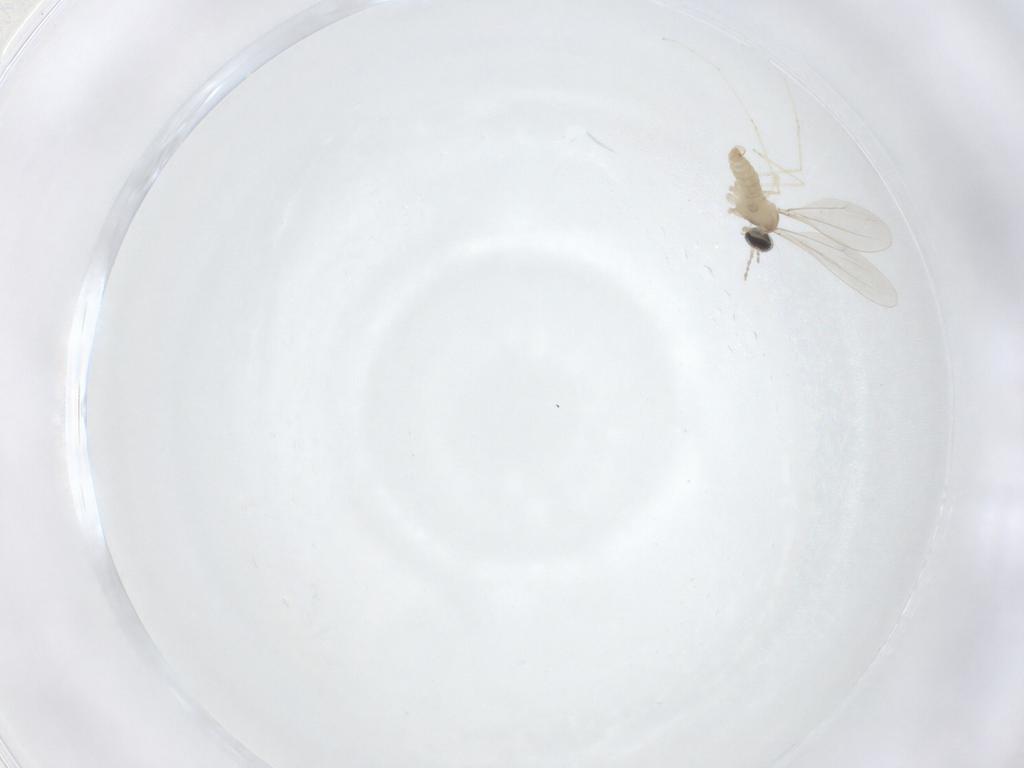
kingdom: Animalia
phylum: Arthropoda
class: Insecta
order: Diptera
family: Cecidomyiidae
